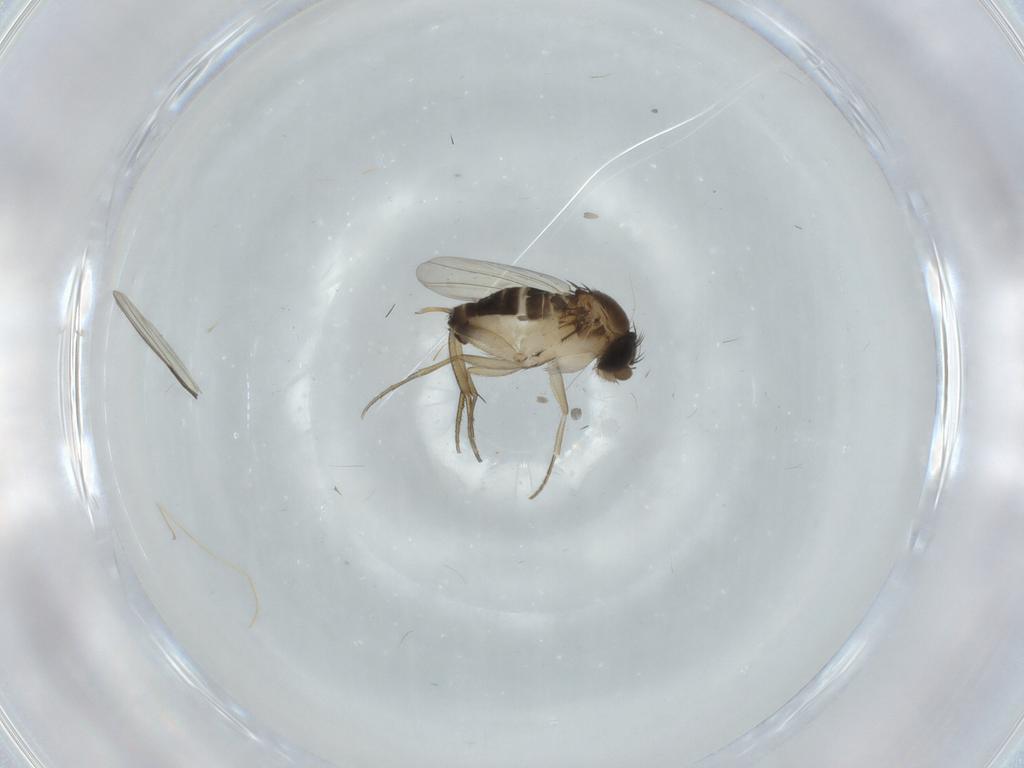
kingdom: Animalia
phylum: Arthropoda
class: Insecta
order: Diptera
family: Phoridae
